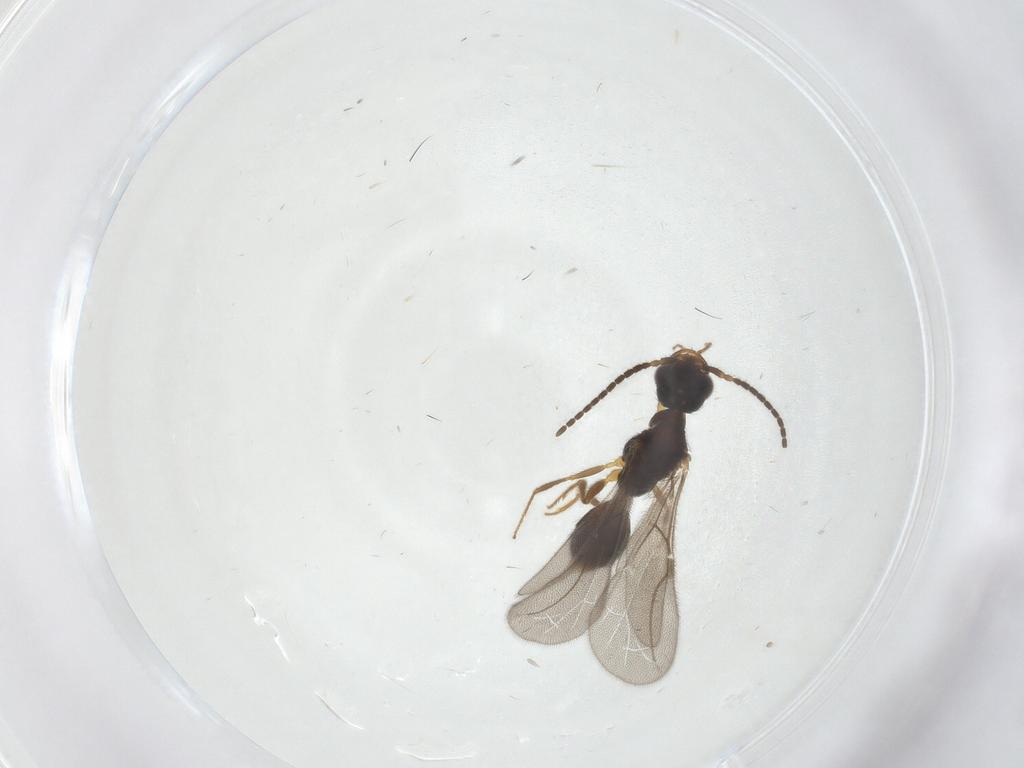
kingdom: Animalia
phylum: Arthropoda
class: Insecta
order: Hymenoptera
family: Bethylidae
